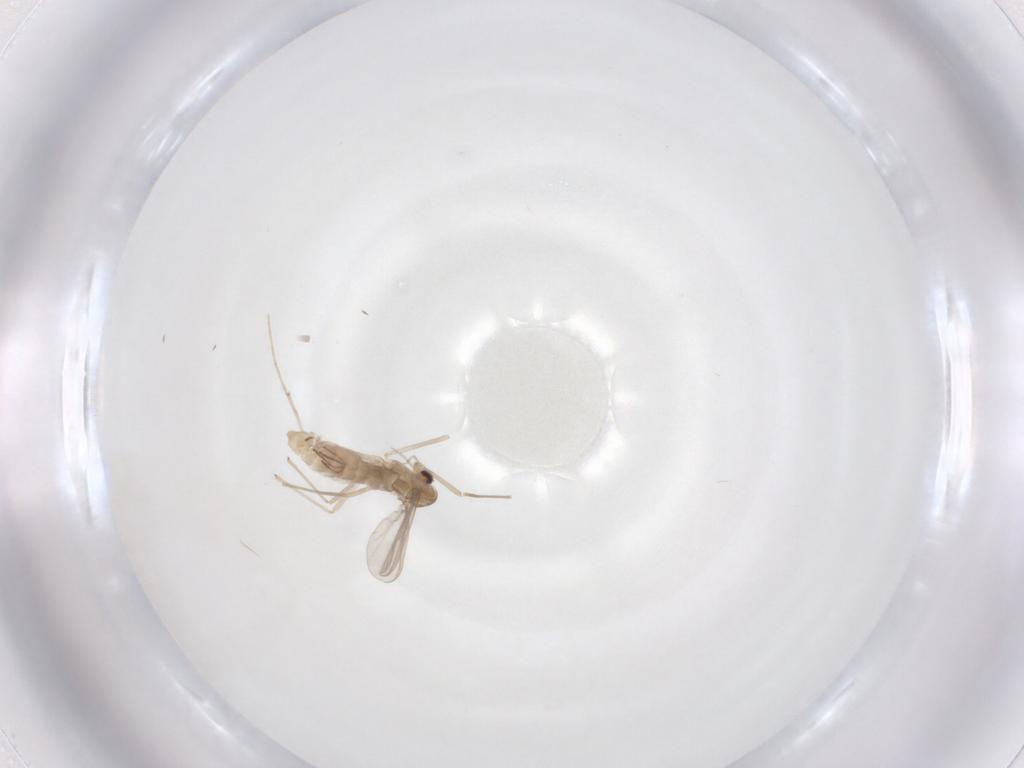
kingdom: Animalia
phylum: Arthropoda
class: Insecta
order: Diptera
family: Chironomidae
